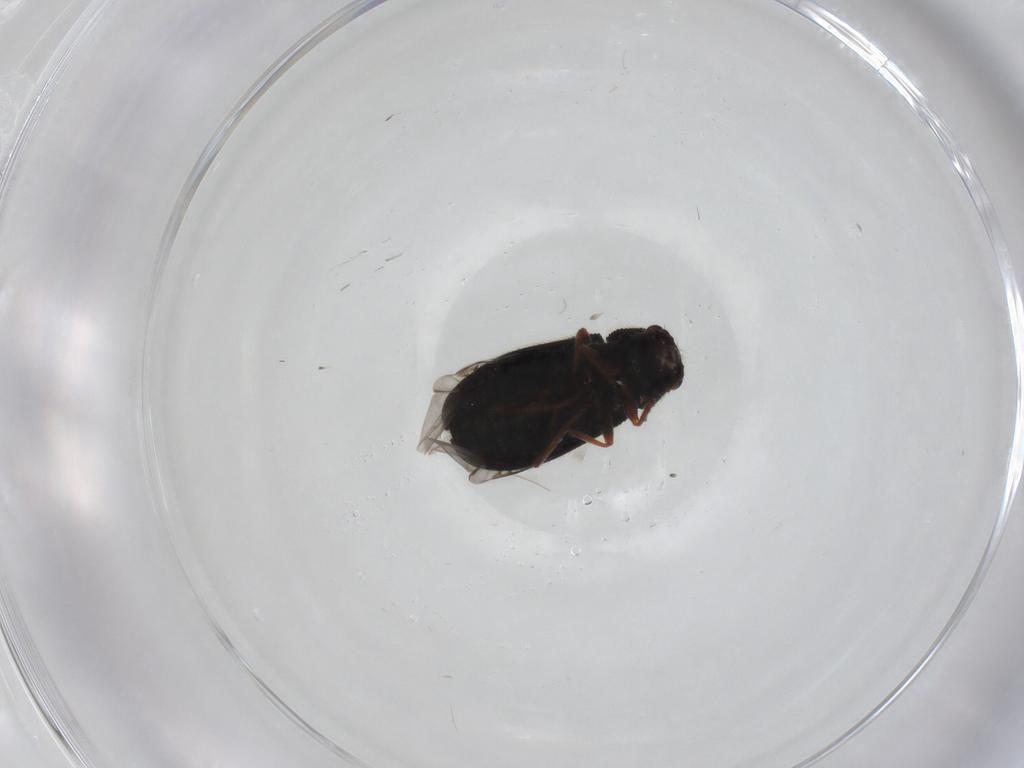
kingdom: Animalia
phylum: Arthropoda
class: Insecta
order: Coleoptera
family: Melyridae
